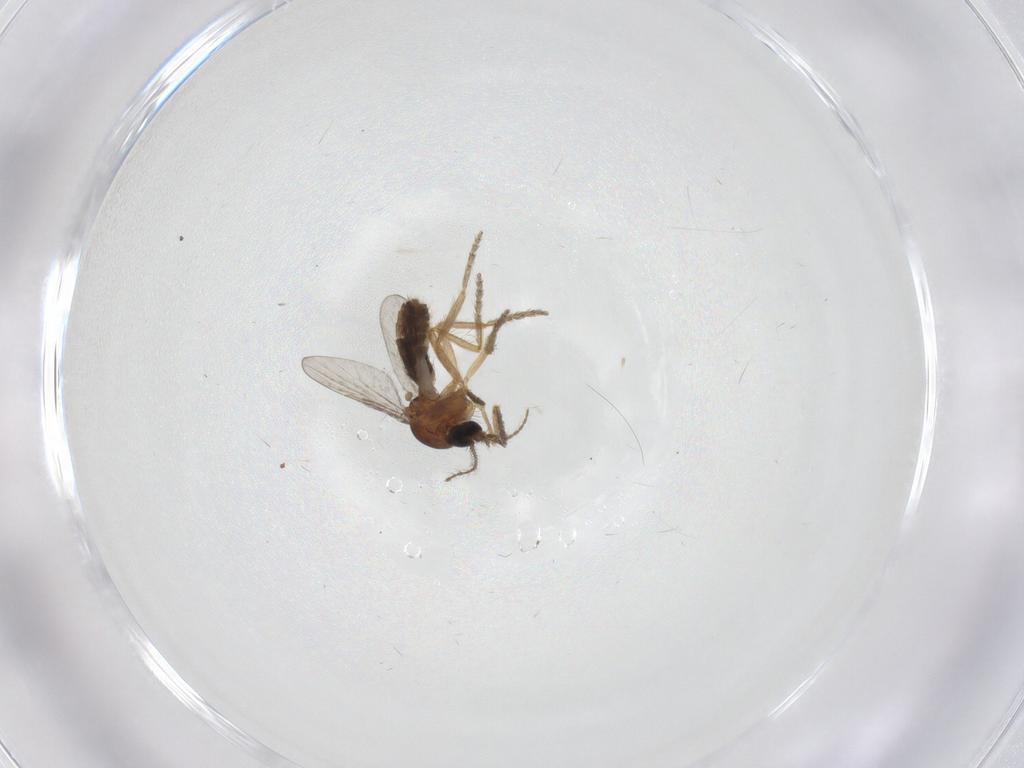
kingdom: Animalia
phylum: Arthropoda
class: Insecta
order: Diptera
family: Ceratopogonidae
